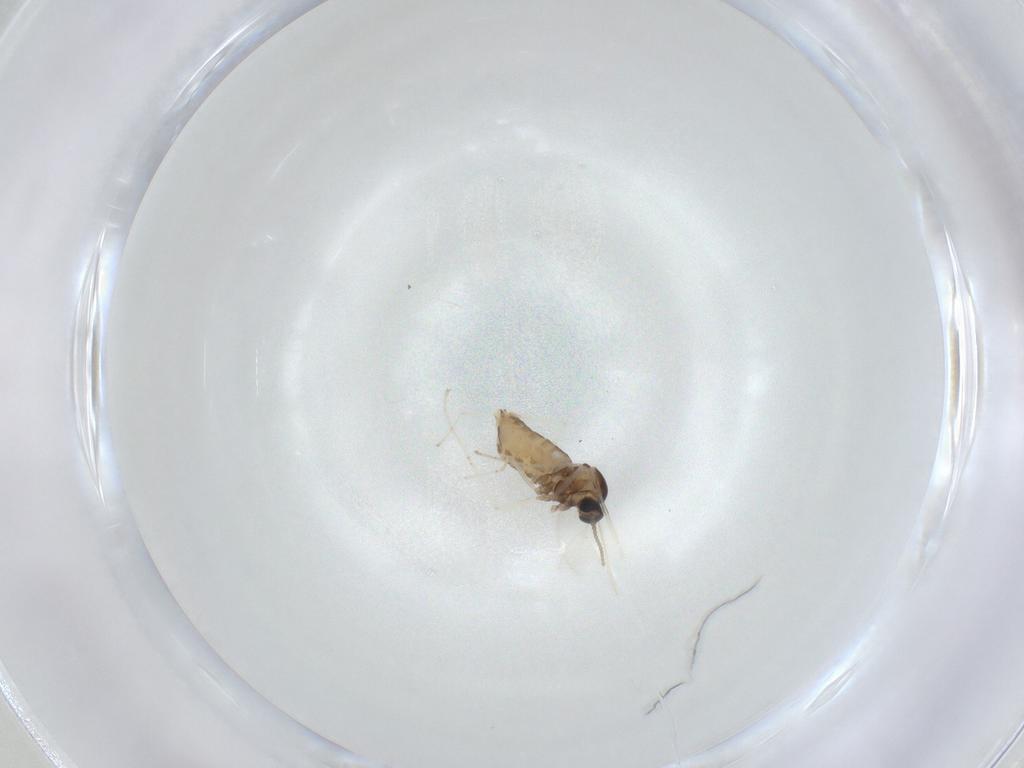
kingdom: Animalia
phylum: Arthropoda
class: Insecta
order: Diptera
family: Cecidomyiidae
